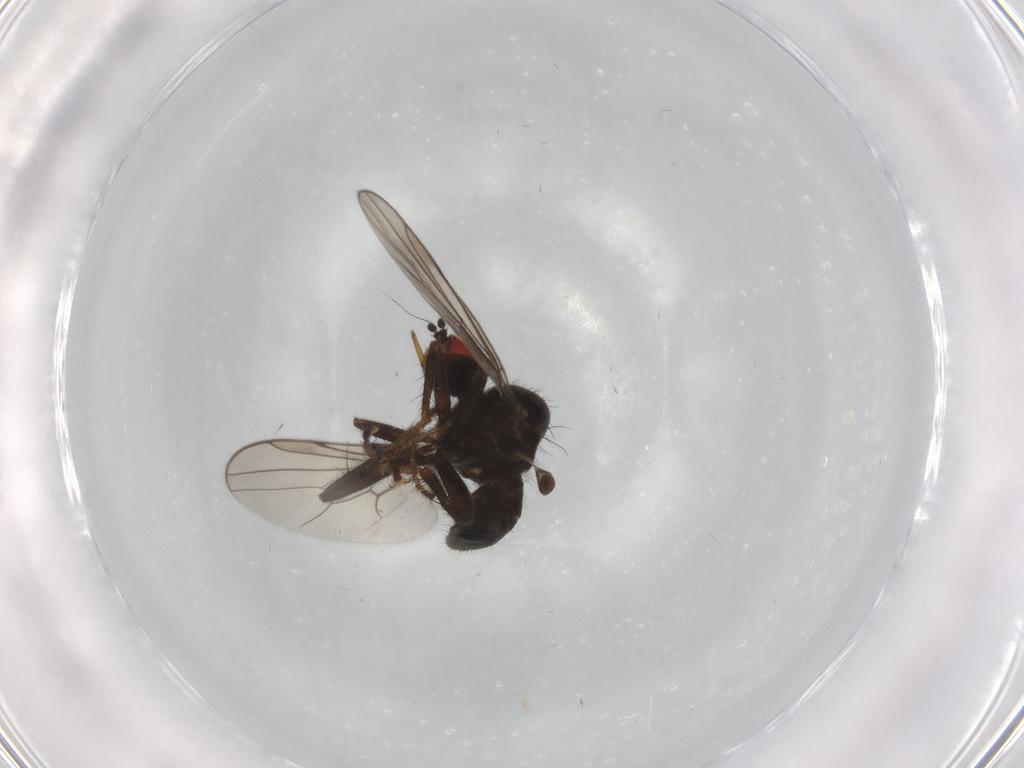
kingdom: Animalia
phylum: Arthropoda
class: Insecta
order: Diptera
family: Hybotidae
